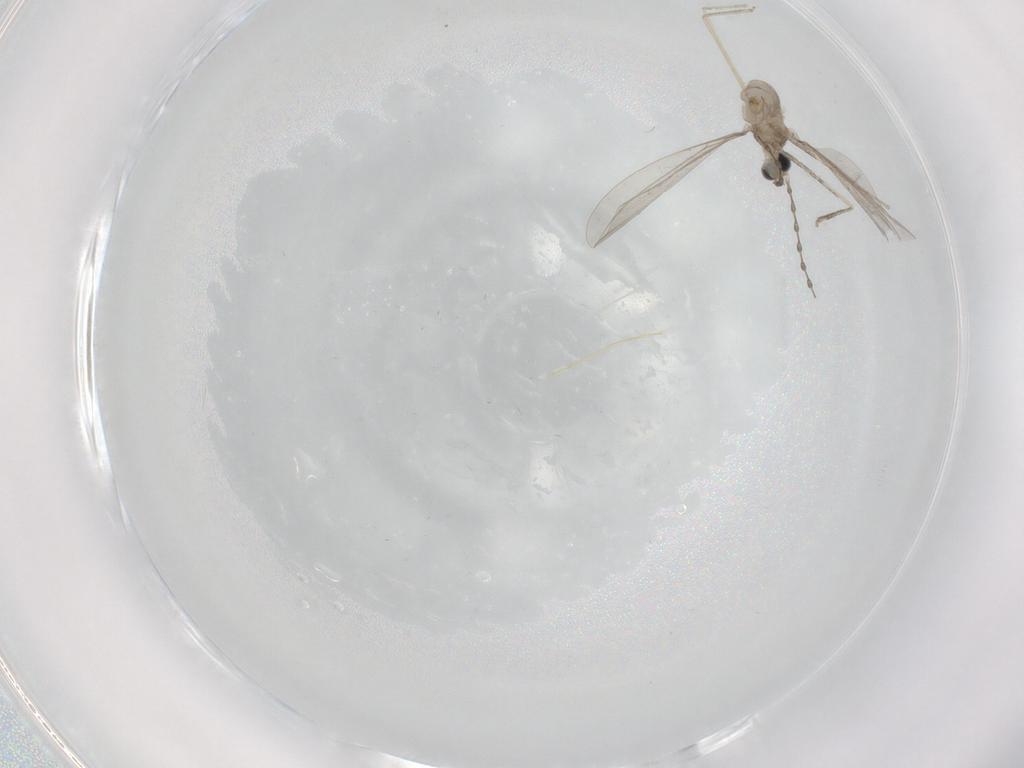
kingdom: Animalia
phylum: Arthropoda
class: Insecta
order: Diptera
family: Cecidomyiidae
